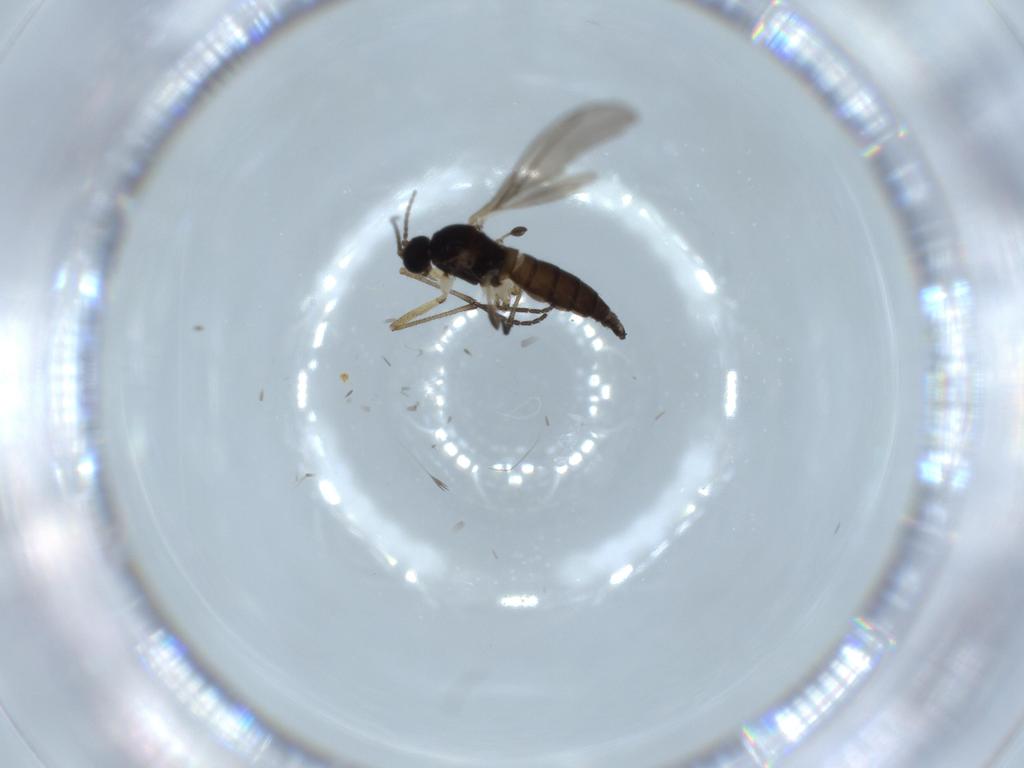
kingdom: Animalia
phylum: Arthropoda
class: Insecta
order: Diptera
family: Sciaridae
